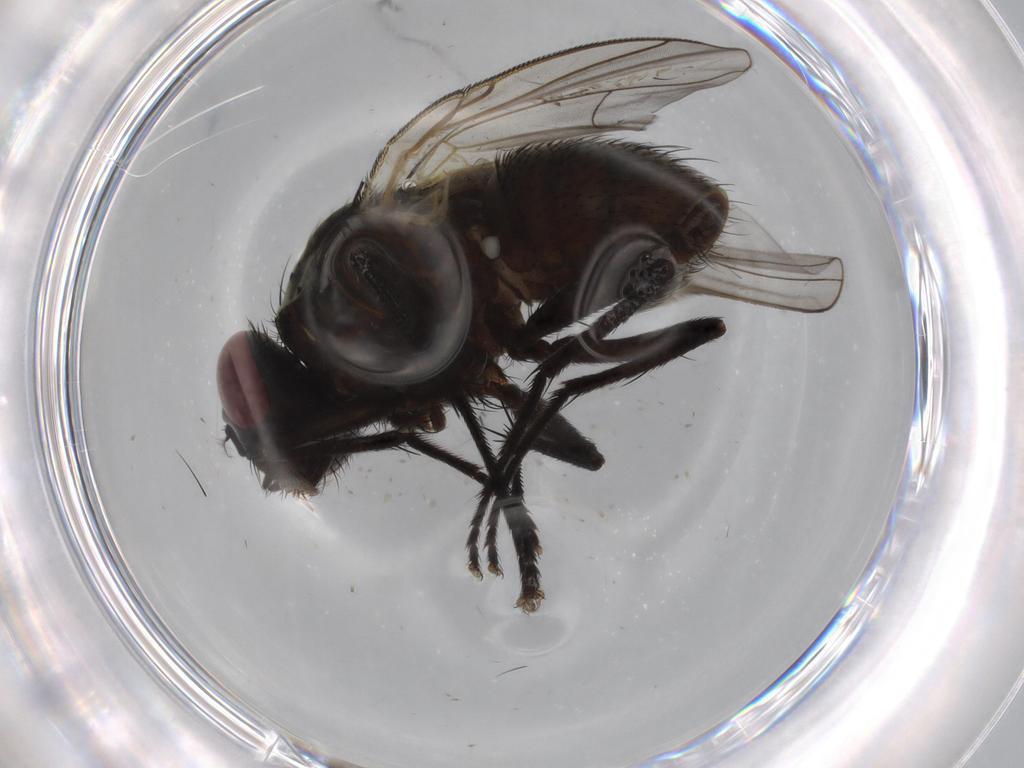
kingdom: Animalia
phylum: Arthropoda
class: Insecta
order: Diptera
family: Muscidae
